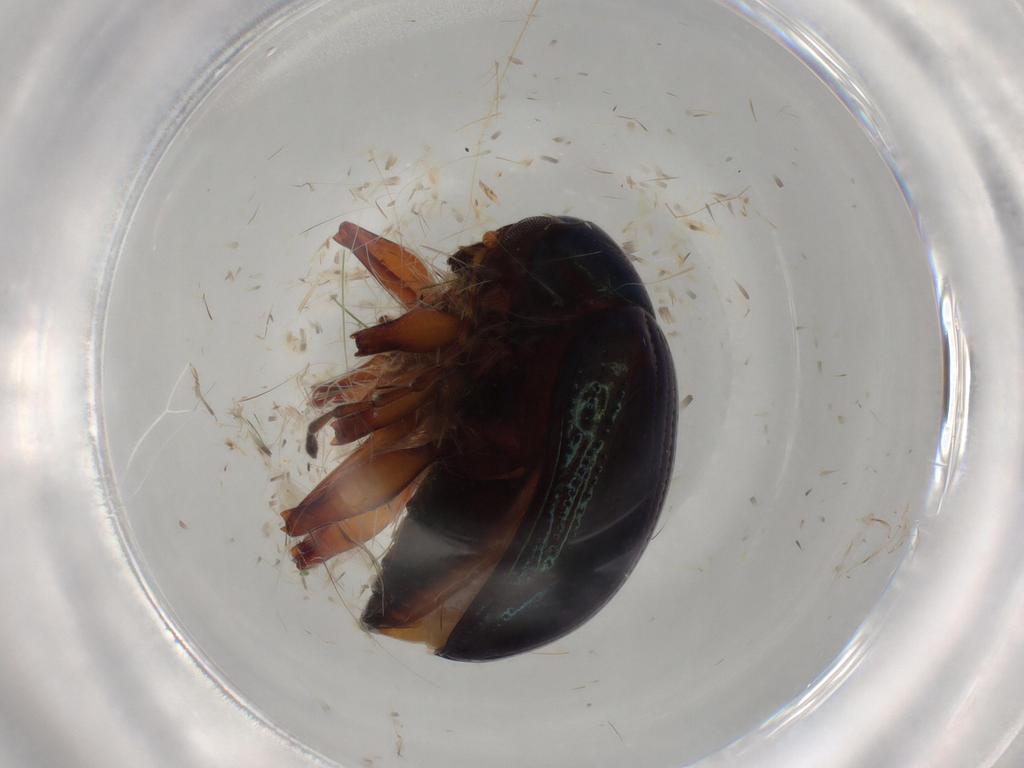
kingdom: Animalia
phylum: Arthropoda
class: Insecta
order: Coleoptera
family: Chrysomelidae
